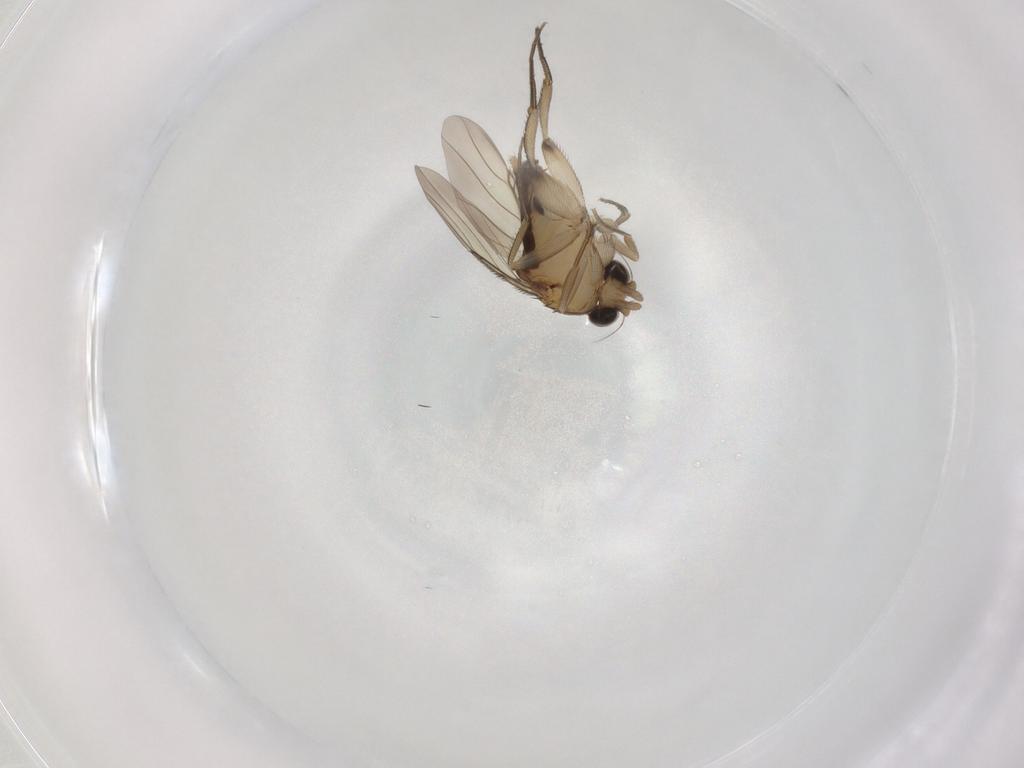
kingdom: Animalia
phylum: Arthropoda
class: Insecta
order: Diptera
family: Phoridae
